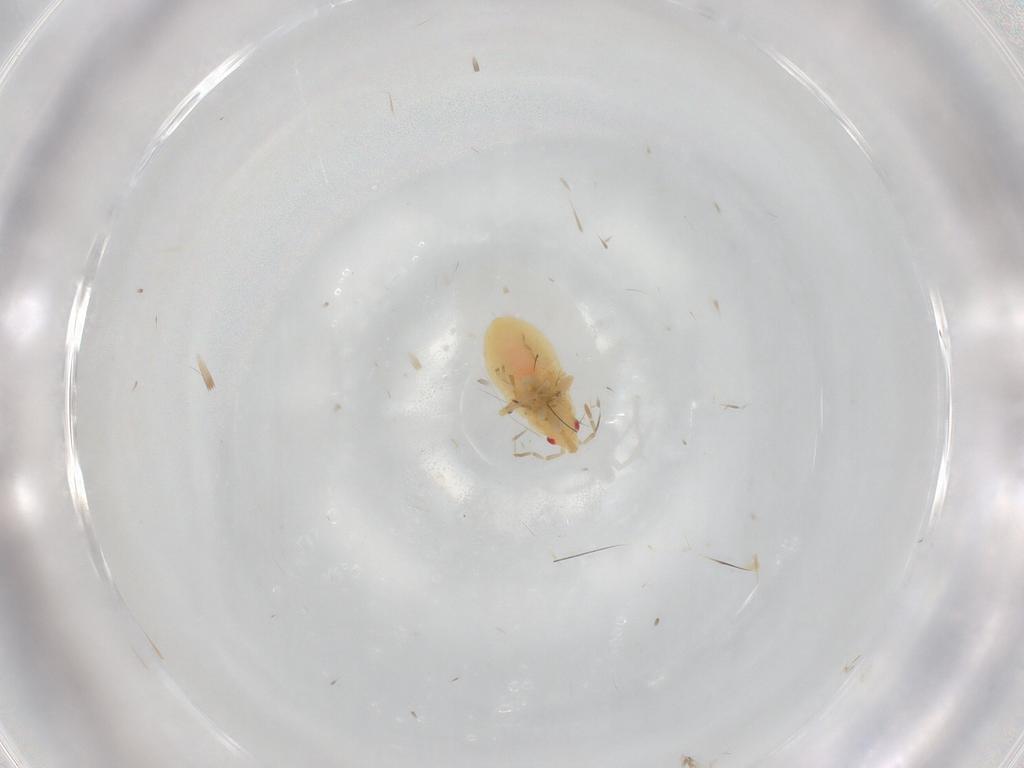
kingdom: Animalia
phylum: Arthropoda
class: Insecta
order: Hemiptera
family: Anthocoridae
